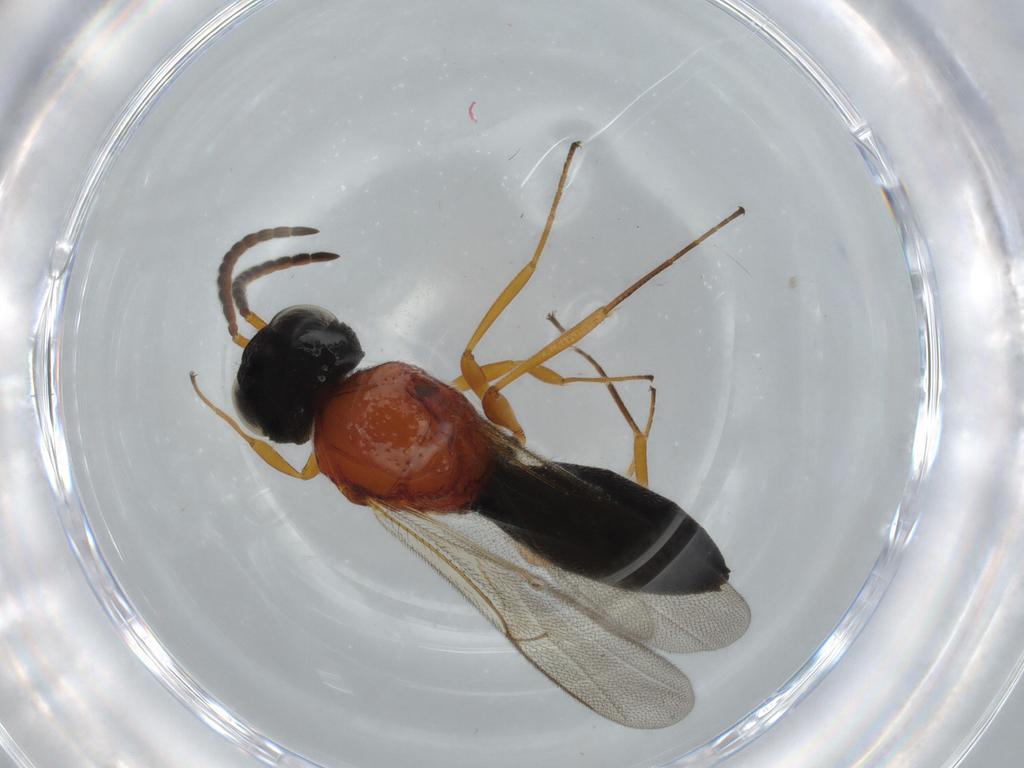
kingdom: Animalia
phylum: Arthropoda
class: Insecta
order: Hymenoptera
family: Scelionidae
